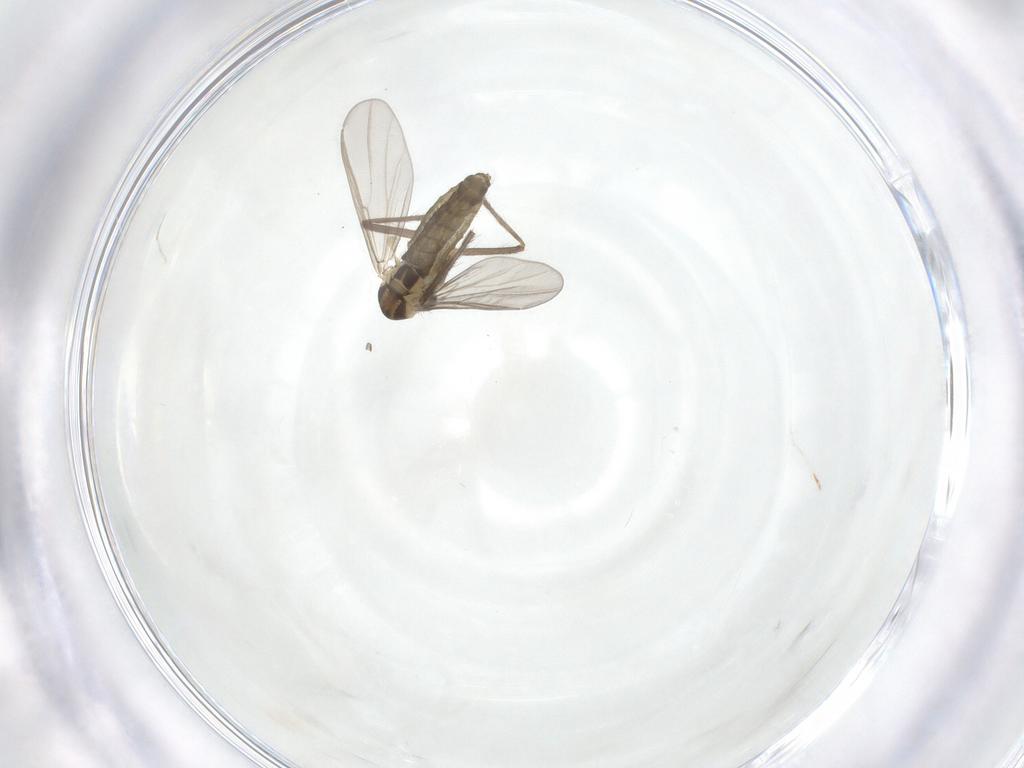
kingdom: Animalia
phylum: Arthropoda
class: Insecta
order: Diptera
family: Chironomidae
